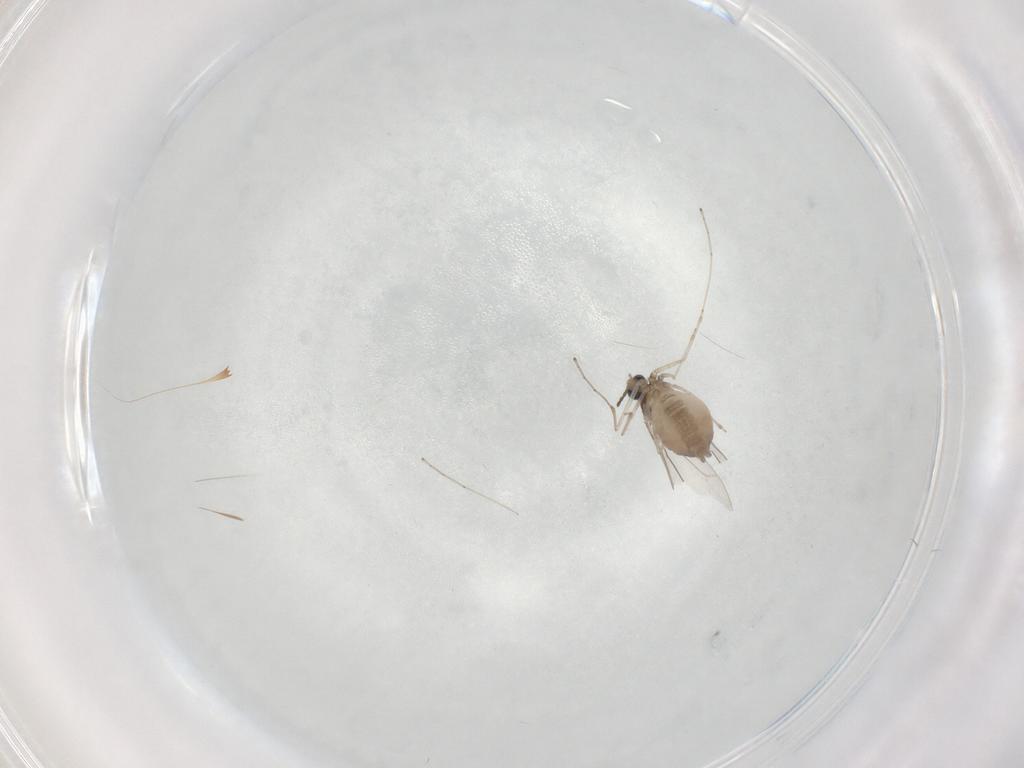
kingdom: Animalia
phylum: Arthropoda
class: Insecta
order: Diptera
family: Cecidomyiidae
